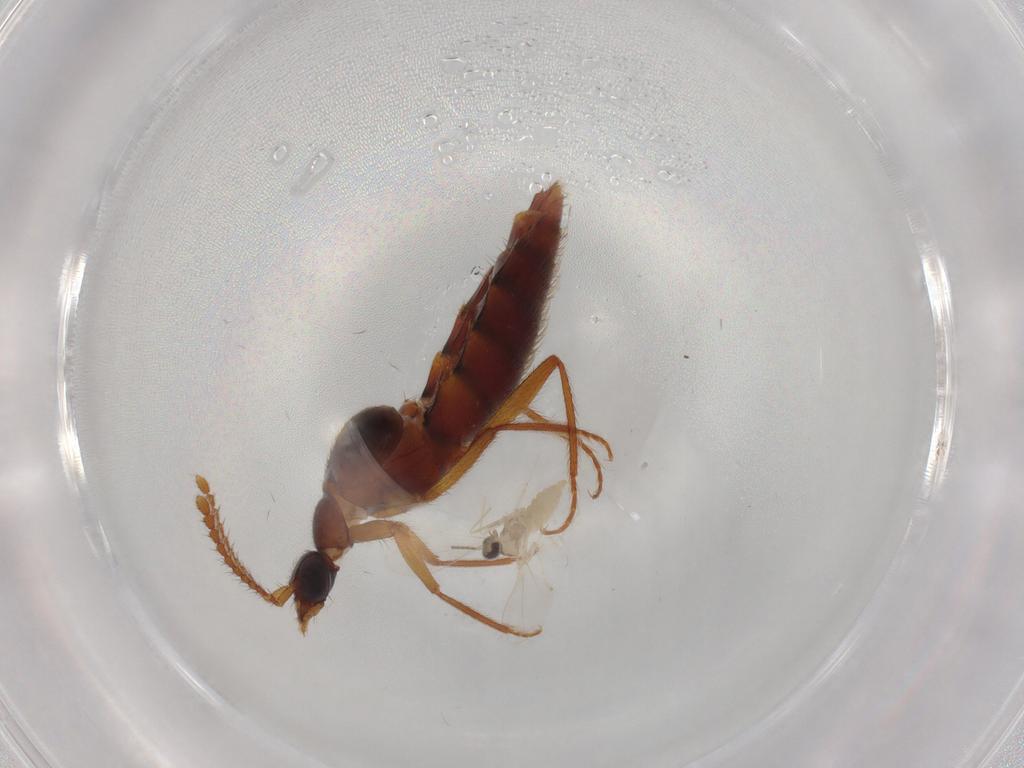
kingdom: Animalia
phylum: Arthropoda
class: Insecta
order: Diptera
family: Cecidomyiidae
